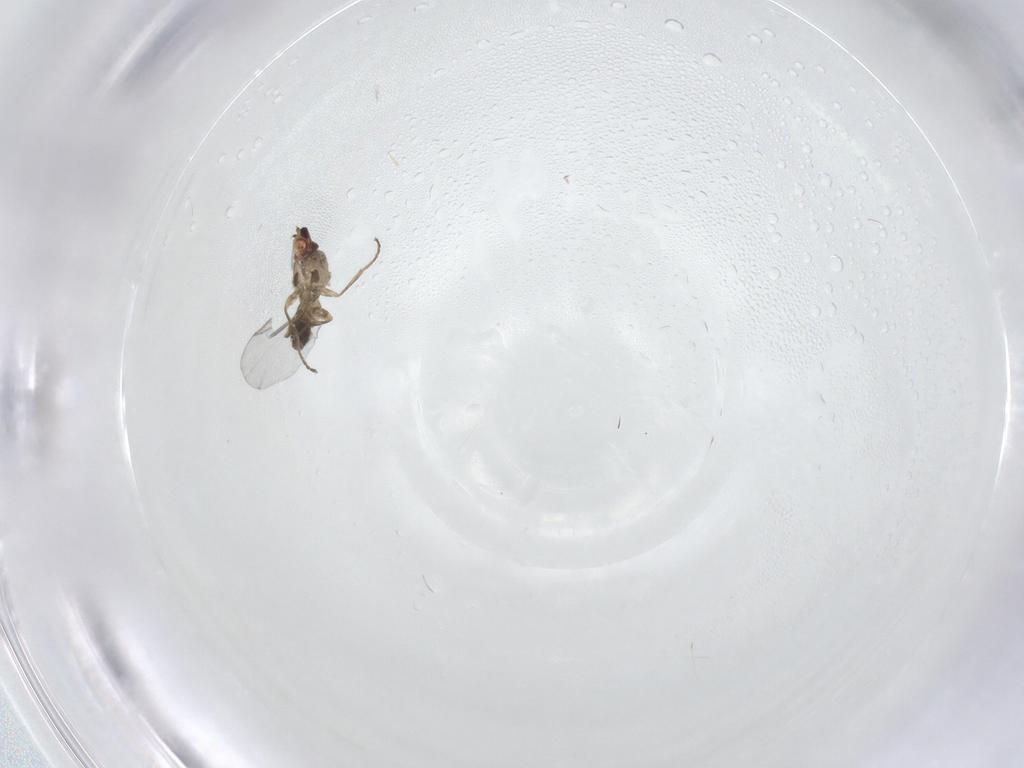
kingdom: Animalia
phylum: Arthropoda
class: Insecta
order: Diptera
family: Agromyzidae
